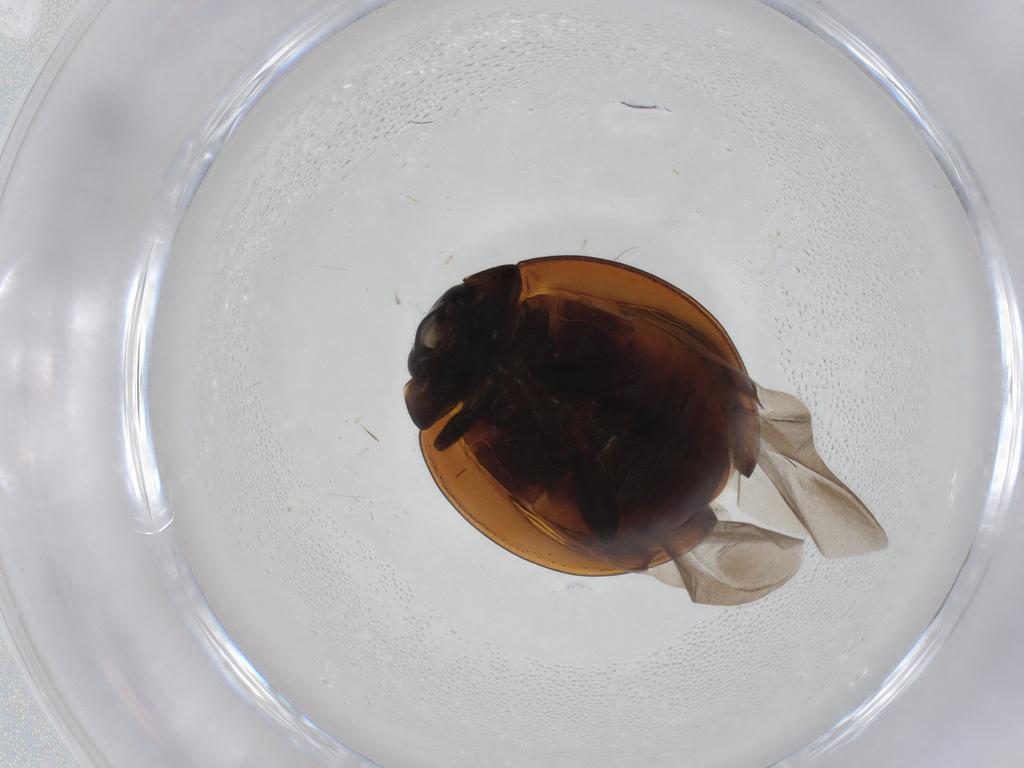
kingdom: Animalia
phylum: Arthropoda
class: Insecta
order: Coleoptera
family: Coccinellidae
